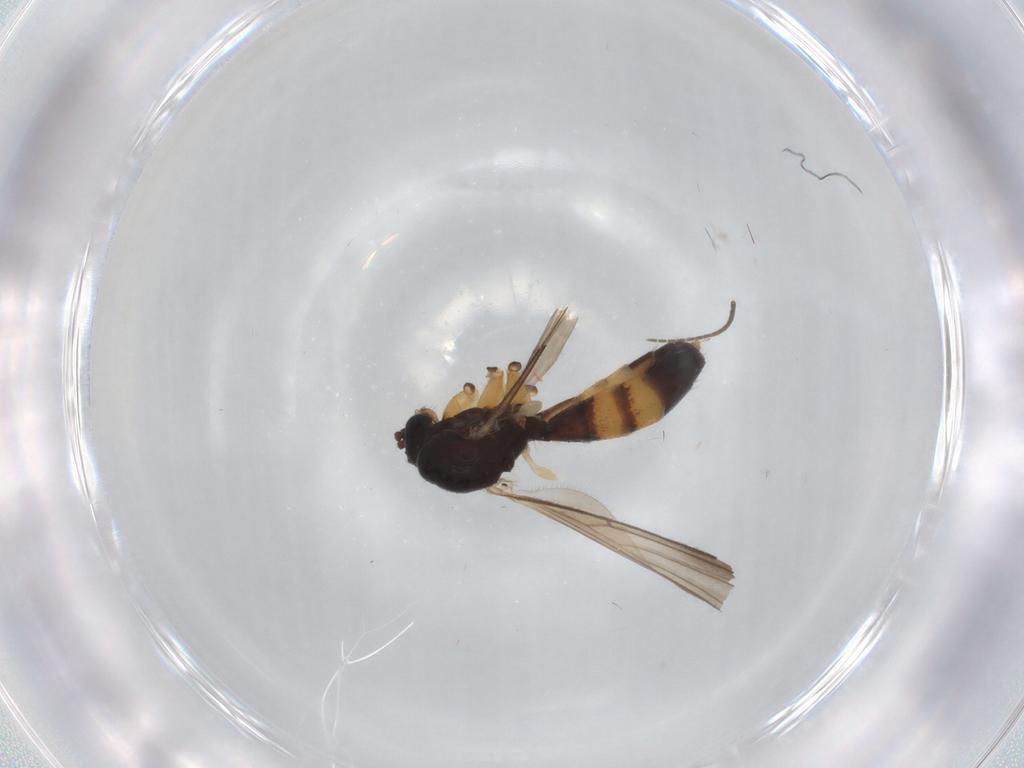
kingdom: Animalia
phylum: Arthropoda
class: Insecta
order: Diptera
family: Mycetophilidae
